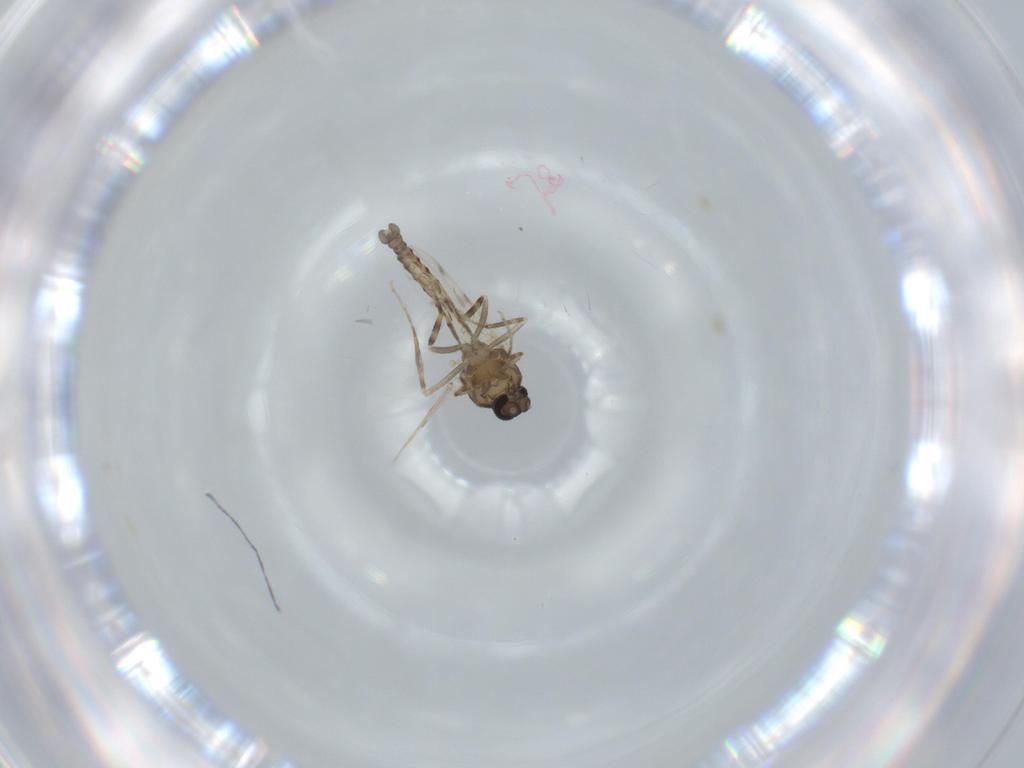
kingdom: Animalia
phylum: Arthropoda
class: Insecta
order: Diptera
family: Ceratopogonidae
